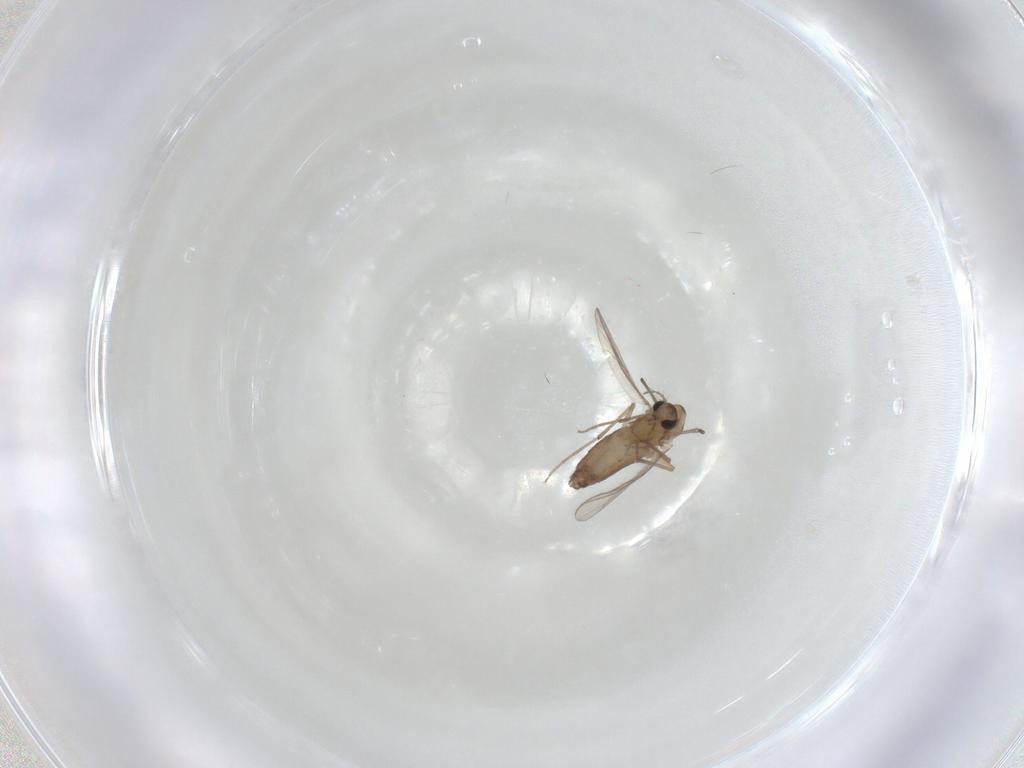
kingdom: Animalia
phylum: Arthropoda
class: Insecta
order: Diptera
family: Chironomidae
